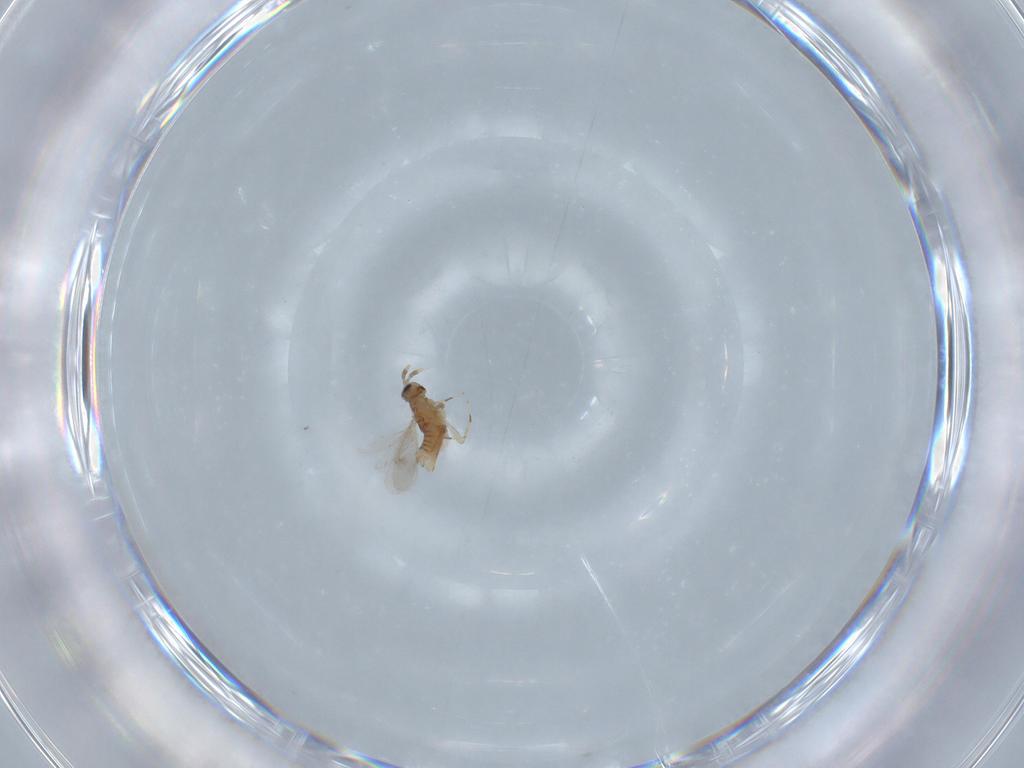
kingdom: Animalia
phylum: Arthropoda
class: Insecta
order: Hymenoptera
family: Aphelinidae
